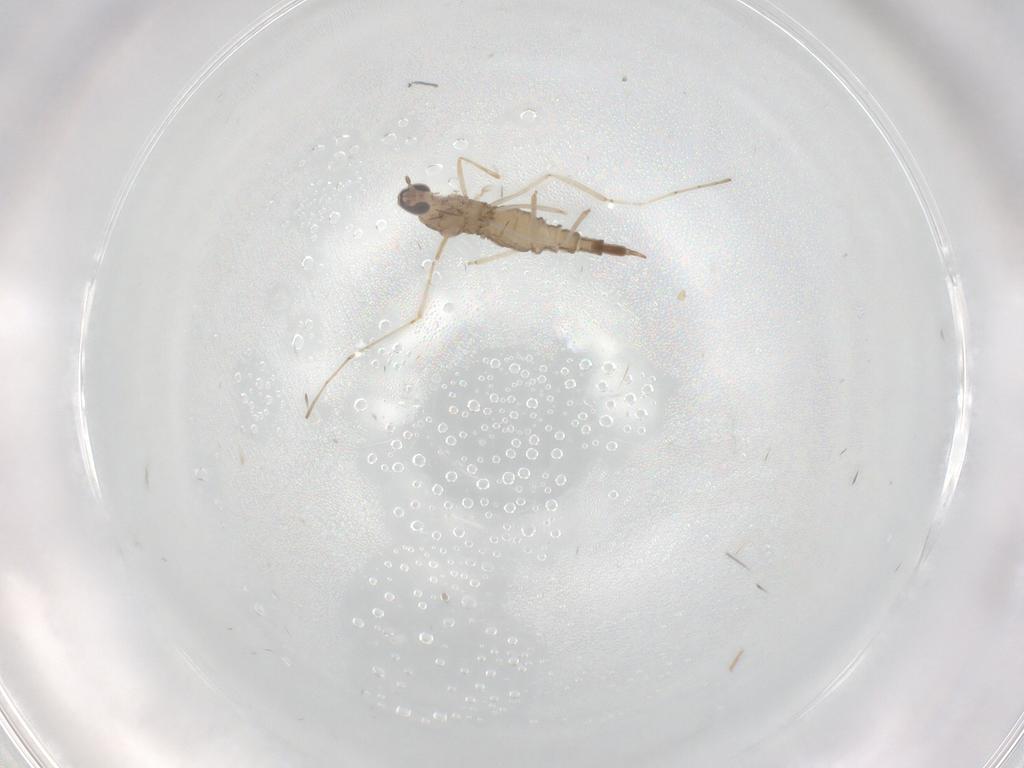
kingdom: Animalia
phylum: Arthropoda
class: Insecta
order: Diptera
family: Cecidomyiidae
